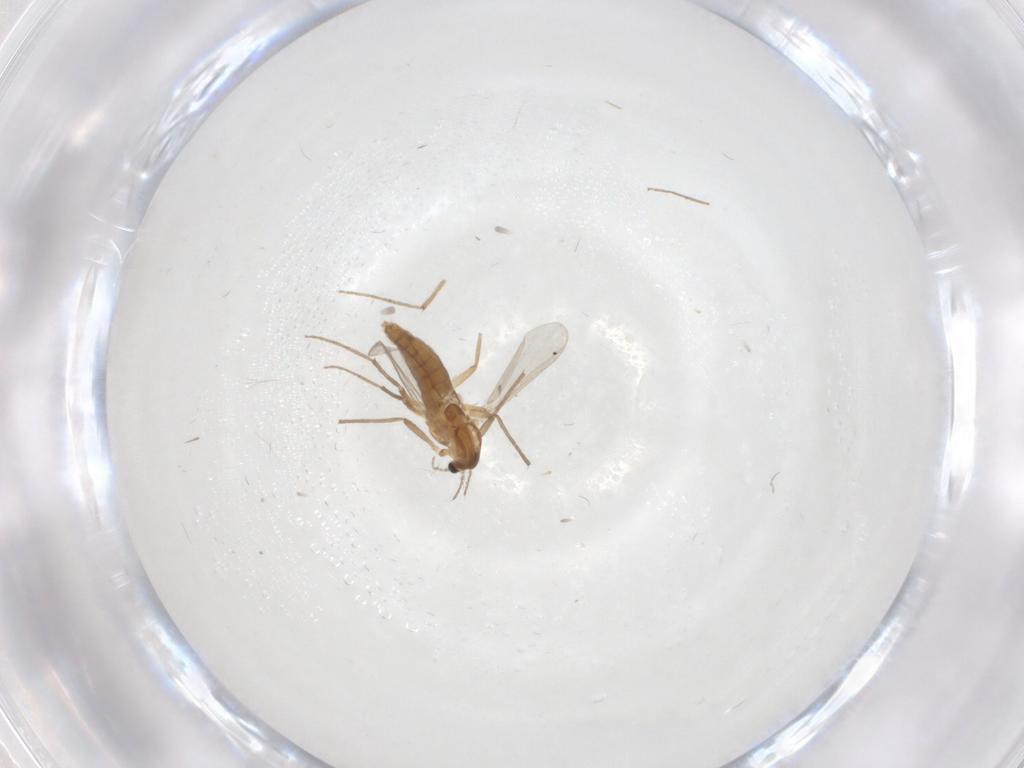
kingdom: Animalia
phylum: Arthropoda
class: Insecta
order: Diptera
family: Chironomidae
